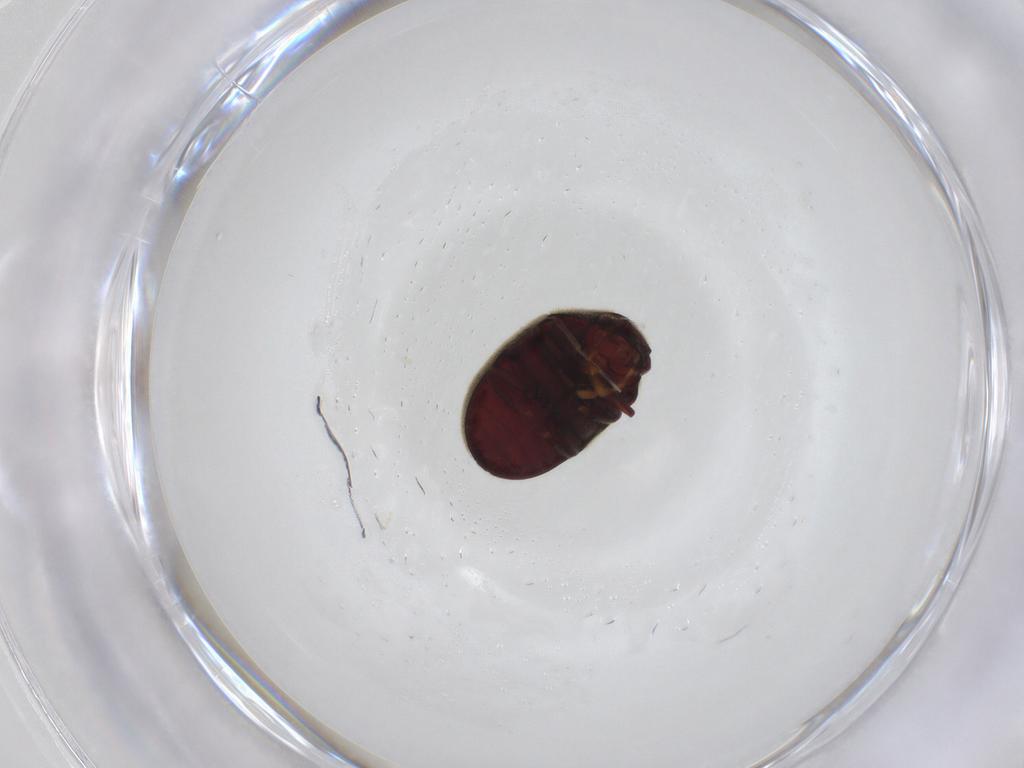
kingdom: Animalia
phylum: Arthropoda
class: Insecta
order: Coleoptera
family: Ptinidae
